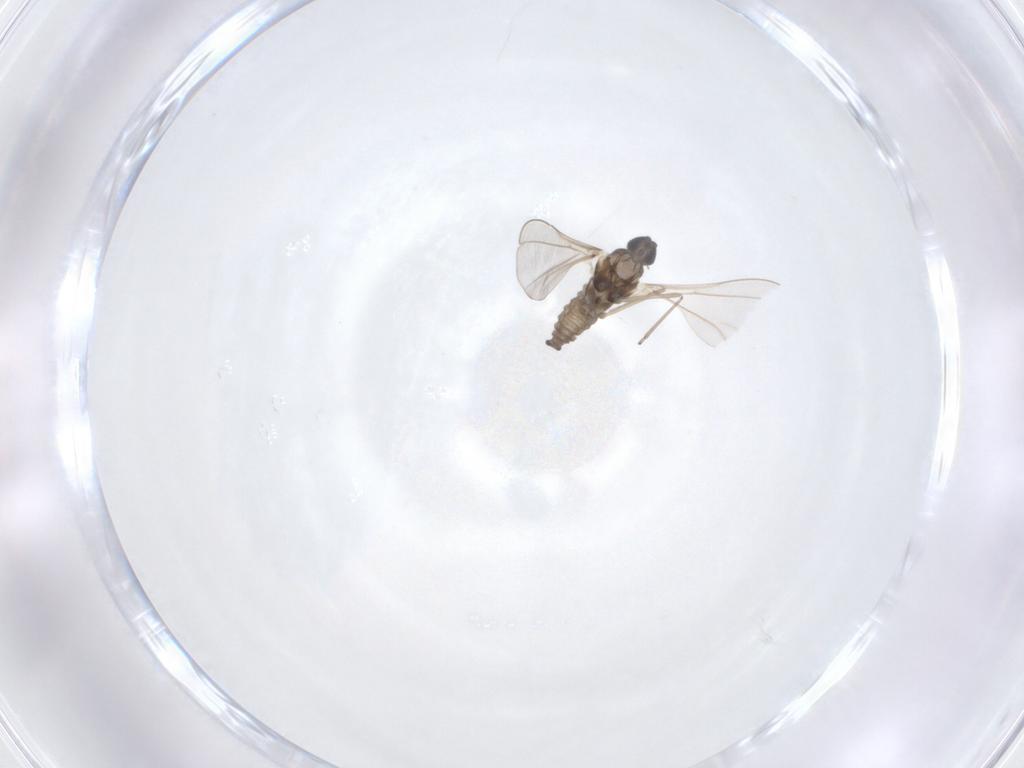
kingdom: Animalia
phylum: Arthropoda
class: Insecta
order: Diptera
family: Cecidomyiidae
